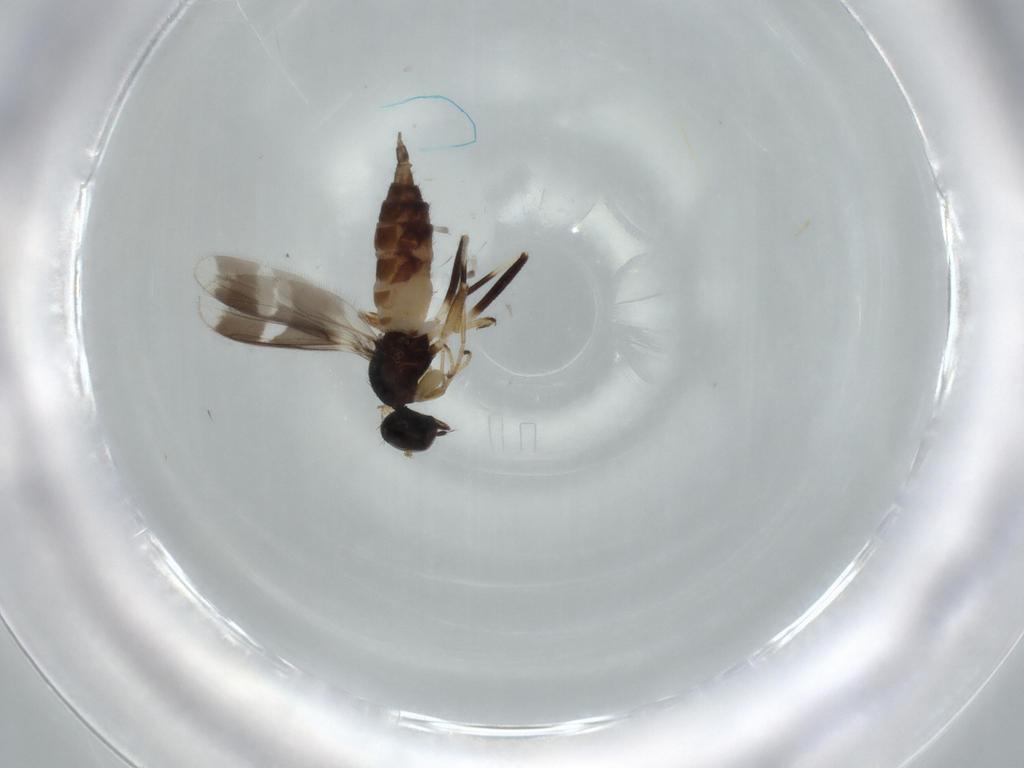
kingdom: Animalia
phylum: Arthropoda
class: Insecta
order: Diptera
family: Hybotidae
